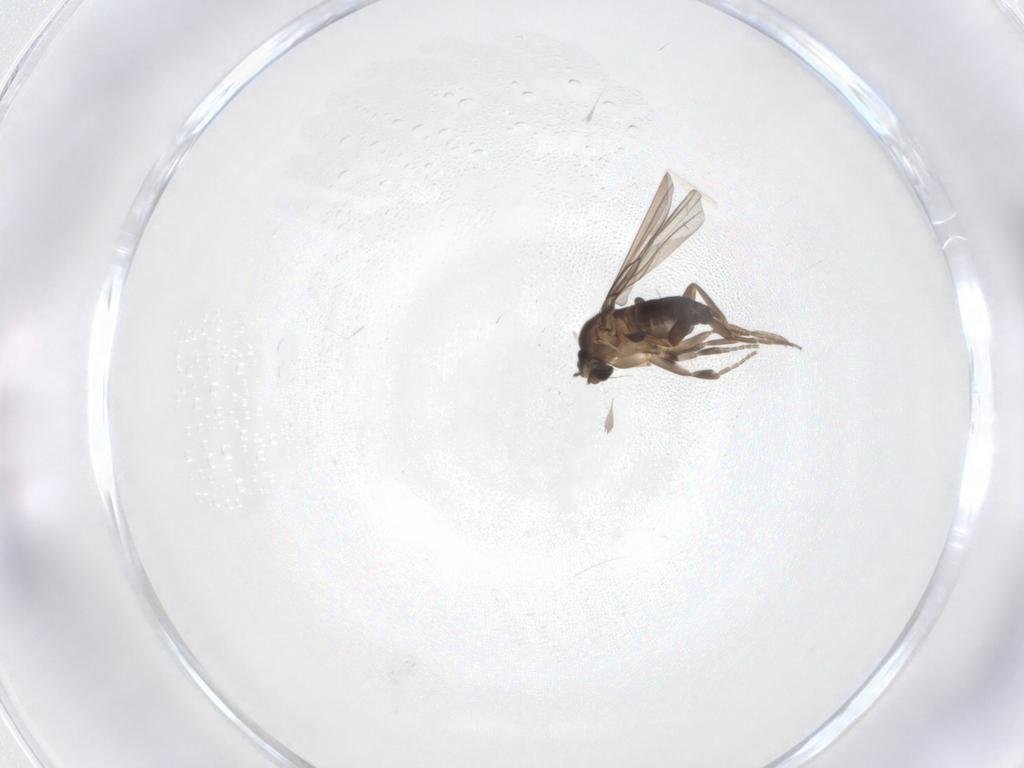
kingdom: Animalia
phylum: Arthropoda
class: Insecta
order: Diptera
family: Phoridae
